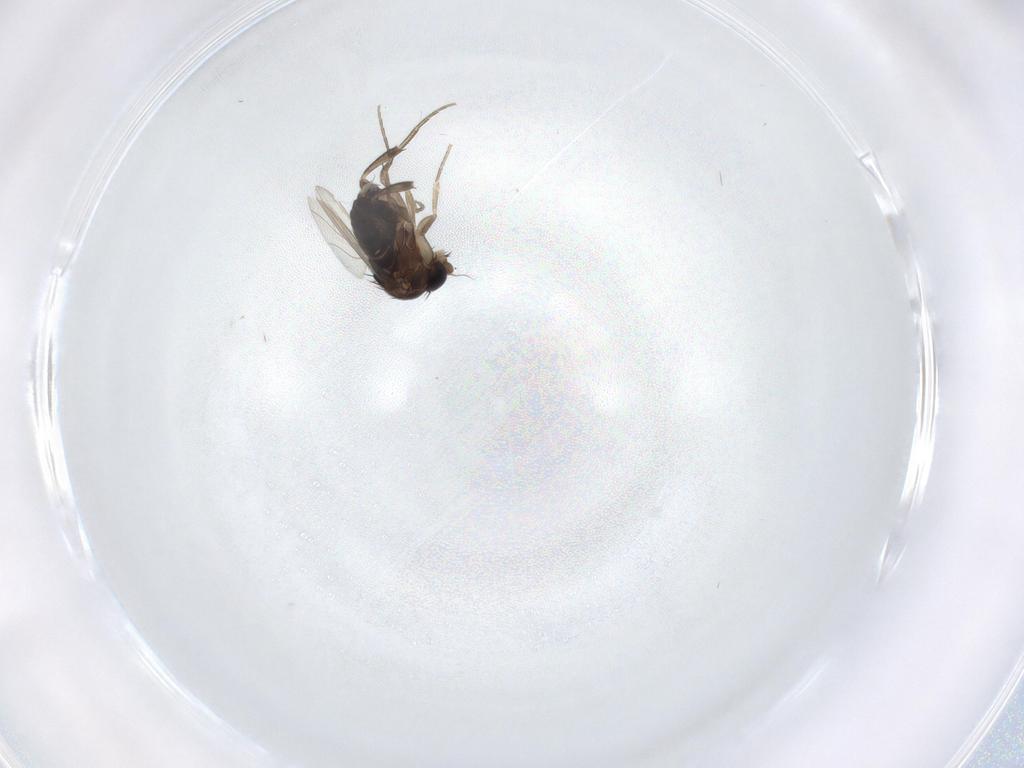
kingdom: Animalia
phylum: Arthropoda
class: Insecta
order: Diptera
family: Phoridae
